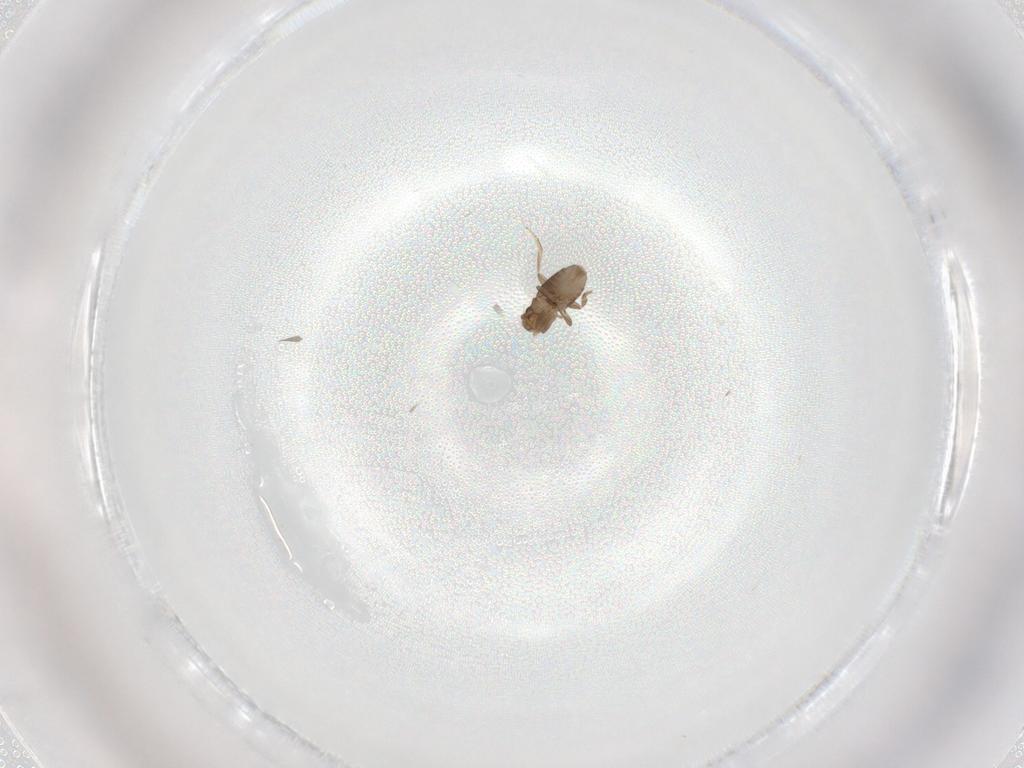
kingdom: Animalia
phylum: Arthropoda
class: Insecta
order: Diptera
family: Psychodidae
